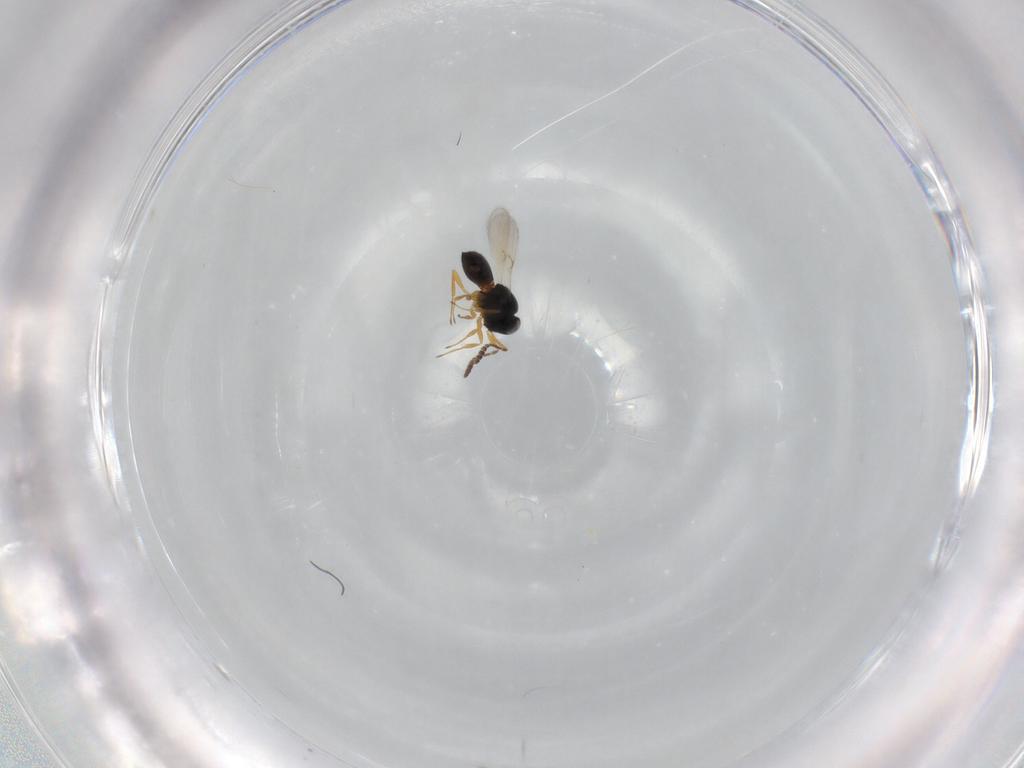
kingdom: Animalia
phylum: Arthropoda
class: Insecta
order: Hymenoptera
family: Scelionidae
